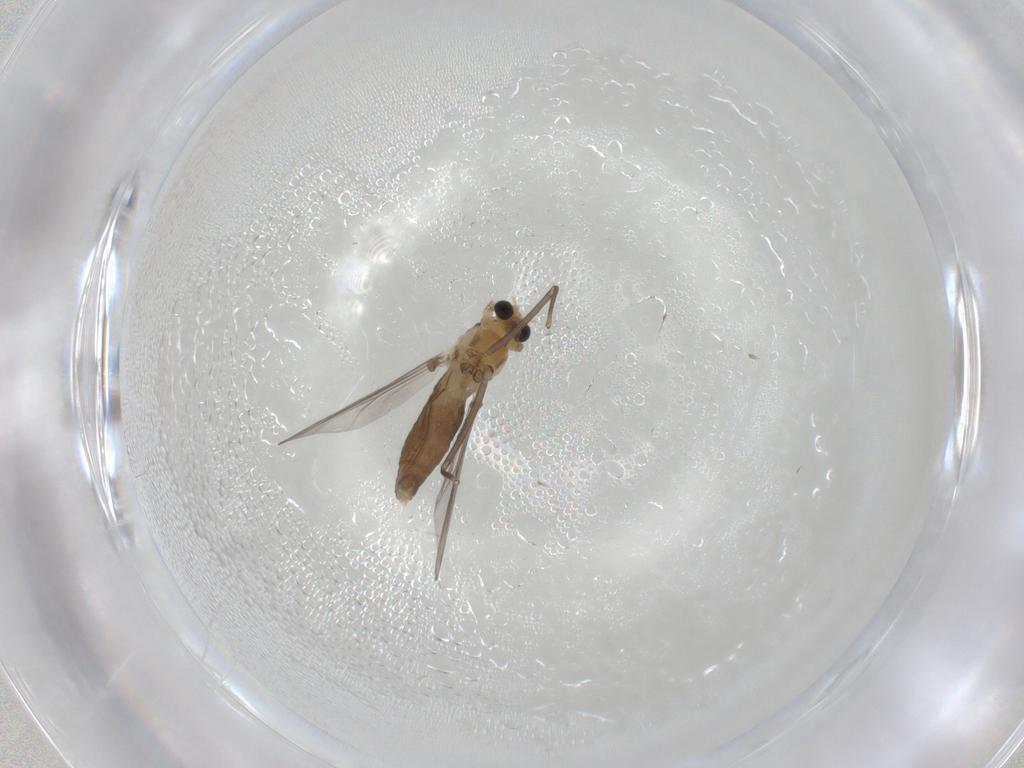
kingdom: Animalia
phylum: Arthropoda
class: Insecta
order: Diptera
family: Chironomidae
